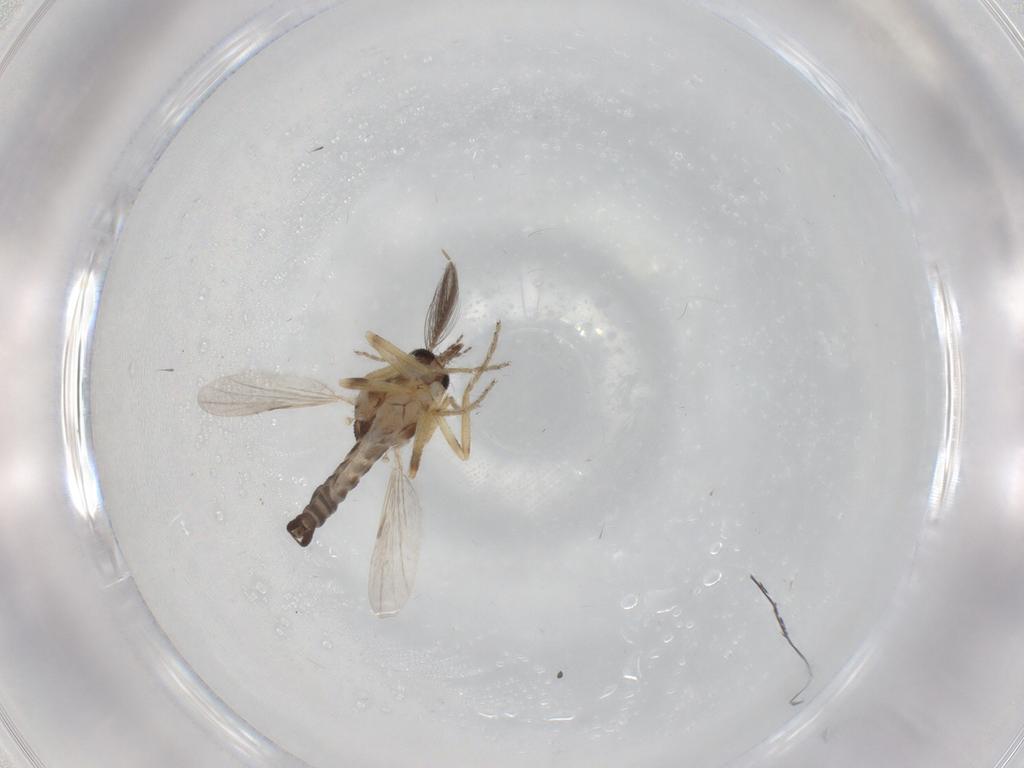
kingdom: Animalia
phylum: Arthropoda
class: Insecta
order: Diptera
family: Ceratopogonidae
